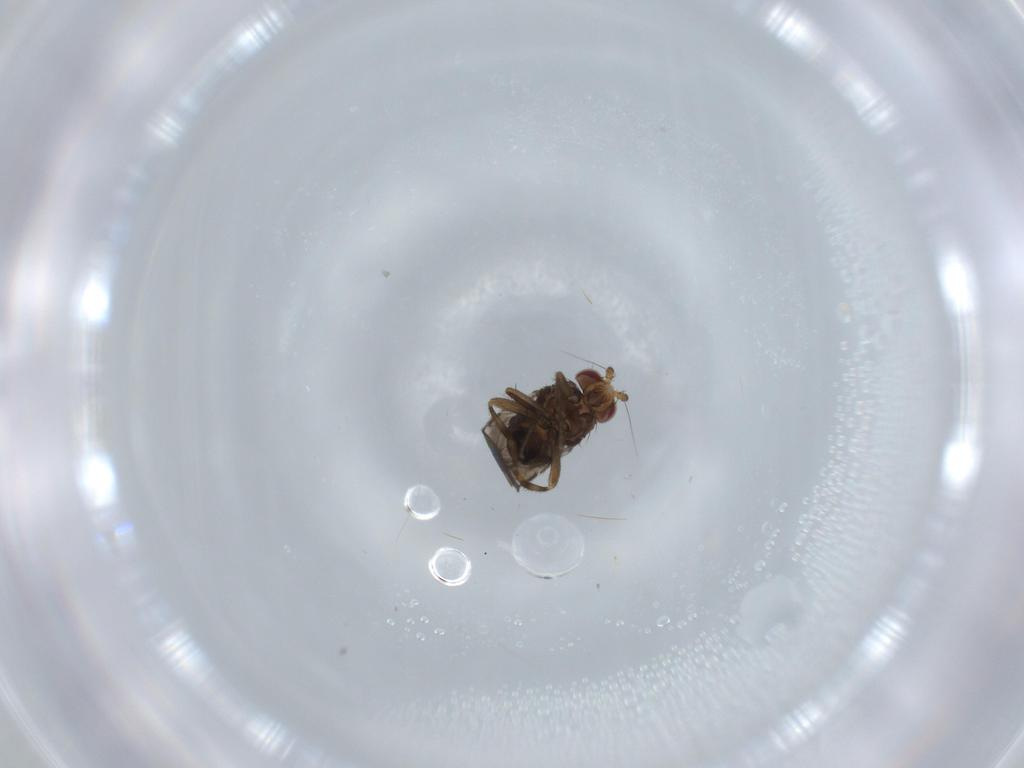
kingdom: Animalia
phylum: Arthropoda
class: Insecta
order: Diptera
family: Sphaeroceridae
